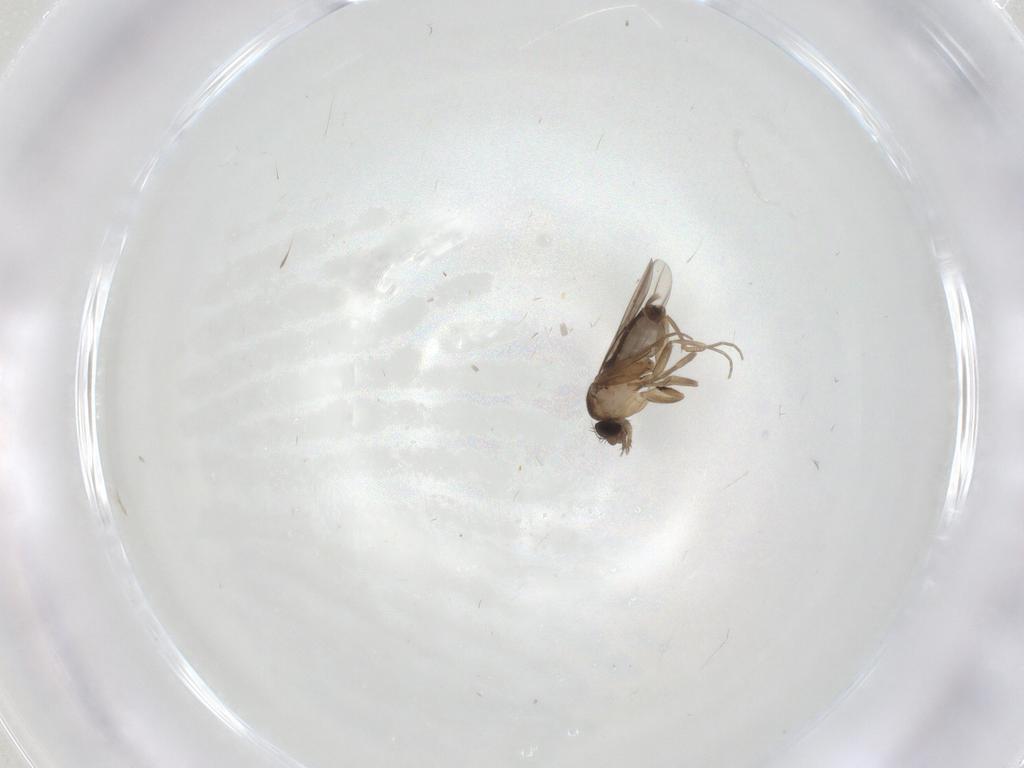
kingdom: Animalia
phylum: Arthropoda
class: Insecta
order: Diptera
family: Phoridae
